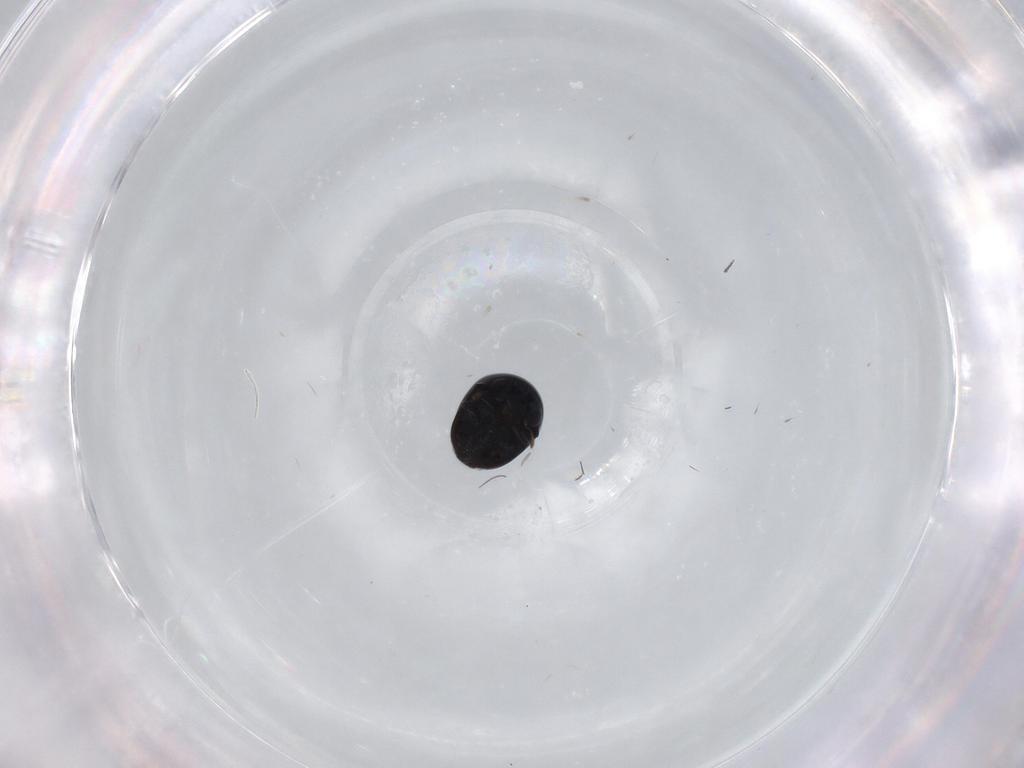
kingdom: Animalia
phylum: Arthropoda
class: Insecta
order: Coleoptera
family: Cybocephalidae
